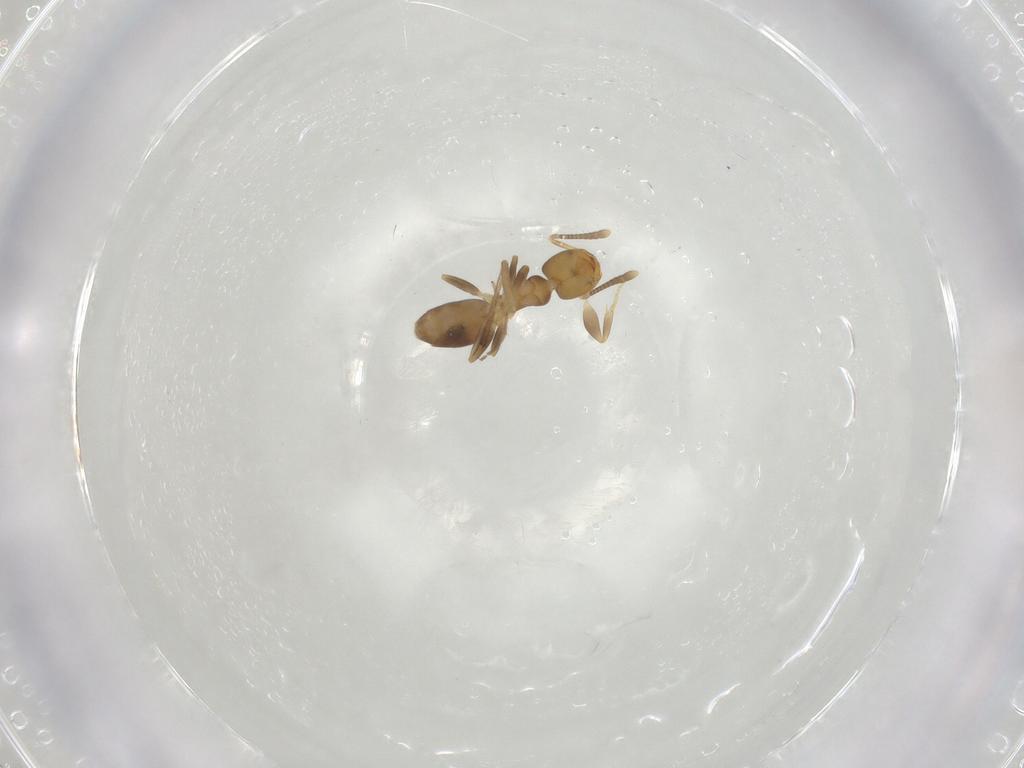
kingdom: Animalia
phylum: Arthropoda
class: Insecta
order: Hymenoptera
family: Formicidae
